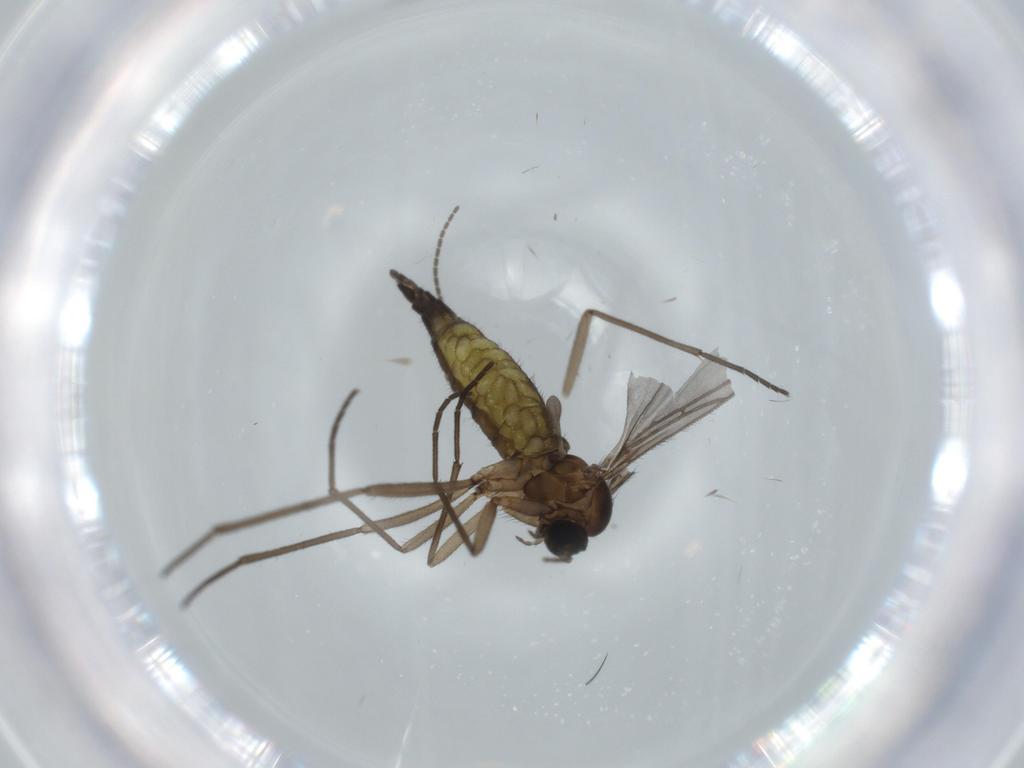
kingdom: Animalia
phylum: Arthropoda
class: Insecta
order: Diptera
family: Sciaridae
